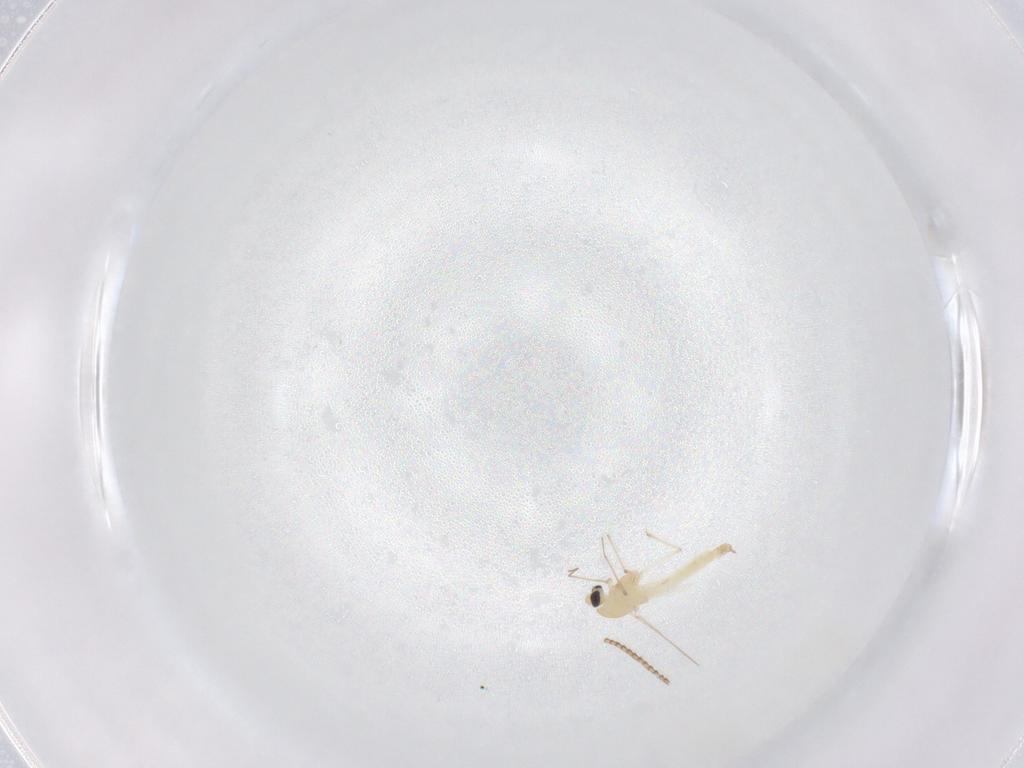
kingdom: Animalia
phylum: Arthropoda
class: Insecta
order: Diptera
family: Chironomidae
